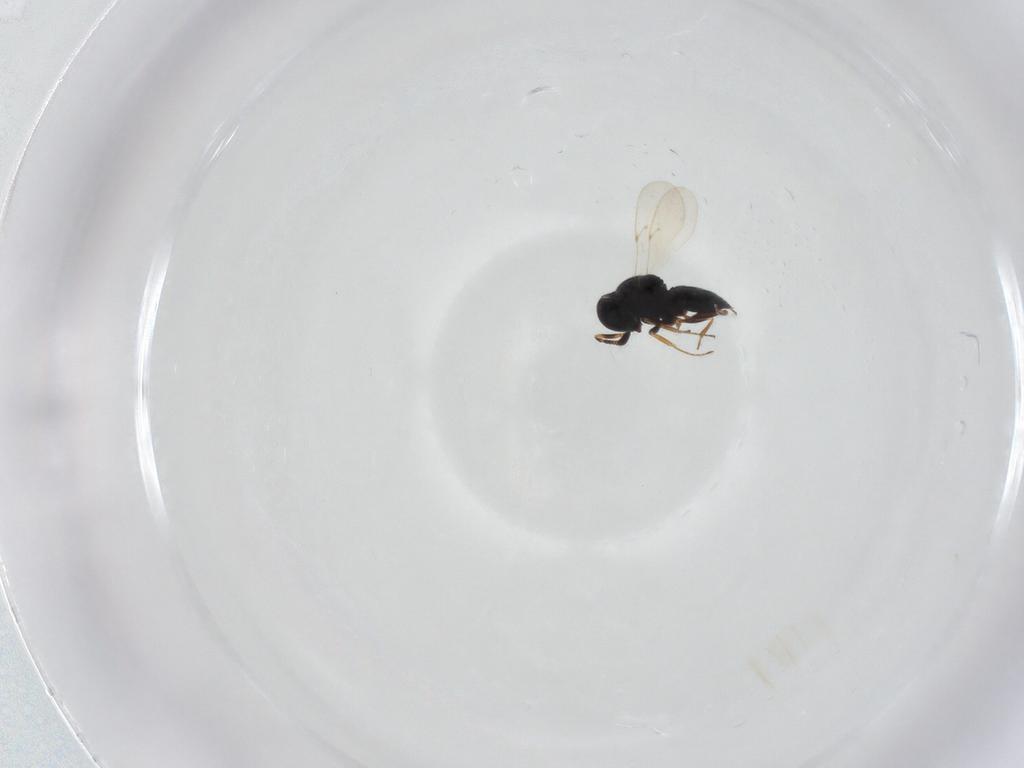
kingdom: Animalia
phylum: Arthropoda
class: Insecta
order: Hymenoptera
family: Scelionidae
